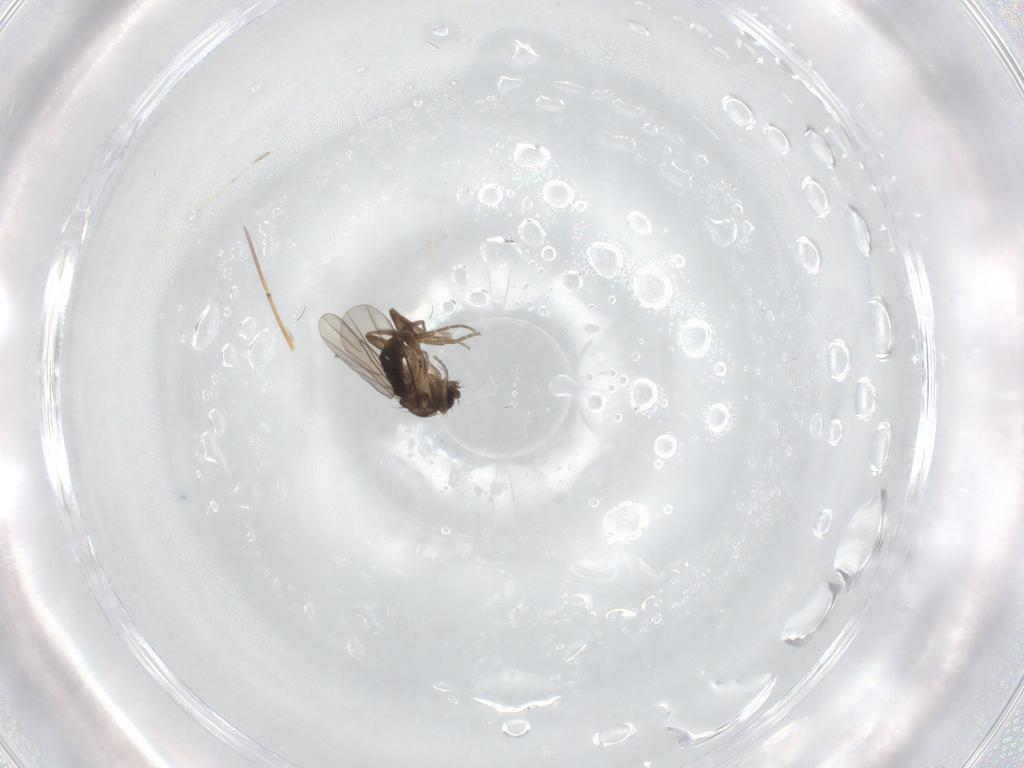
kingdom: Animalia
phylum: Arthropoda
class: Insecta
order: Diptera
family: Phoridae
